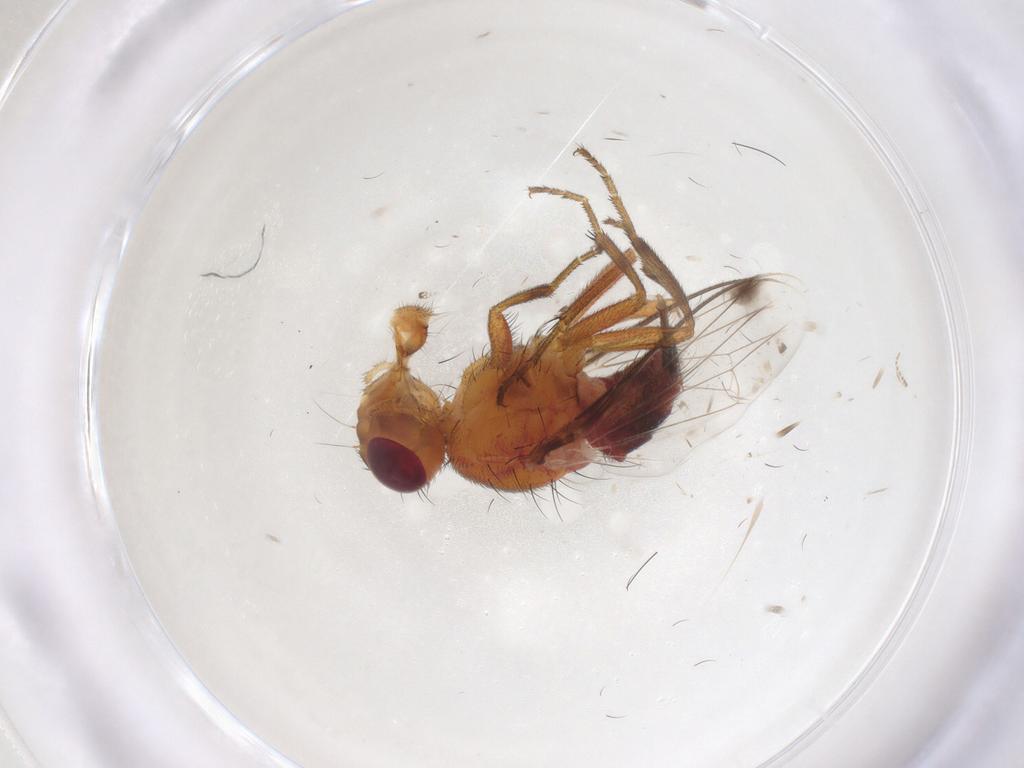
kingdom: Animalia
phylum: Arthropoda
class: Insecta
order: Diptera
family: Richardiidae
